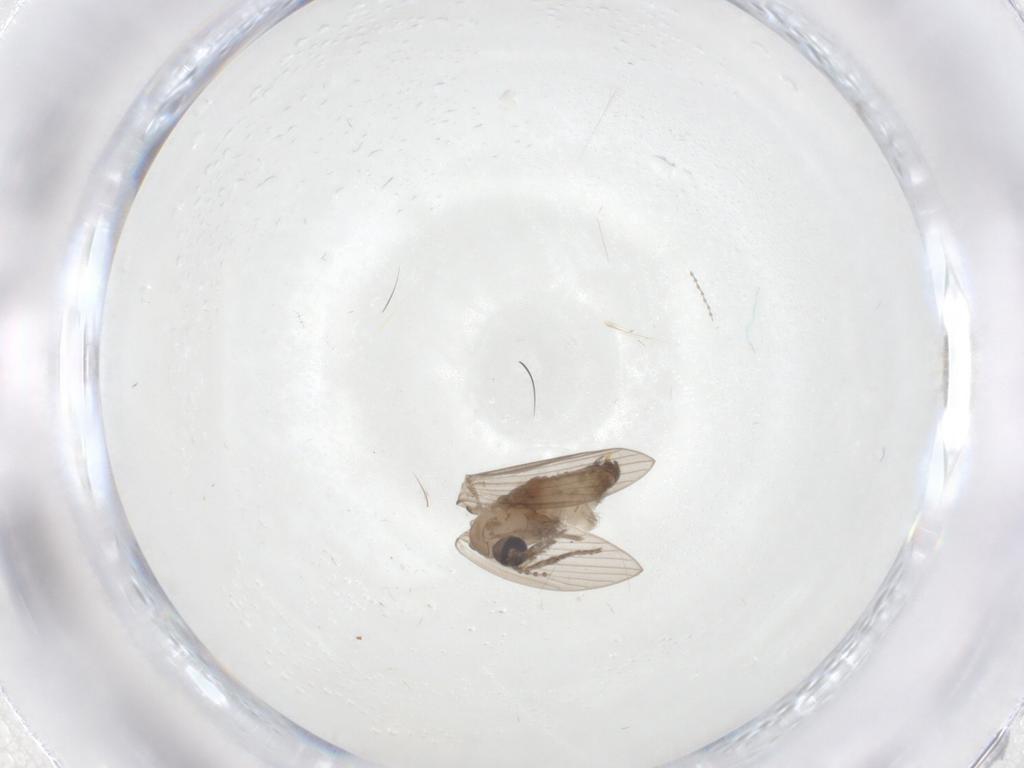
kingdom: Animalia
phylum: Arthropoda
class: Insecta
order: Diptera
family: Psychodidae
